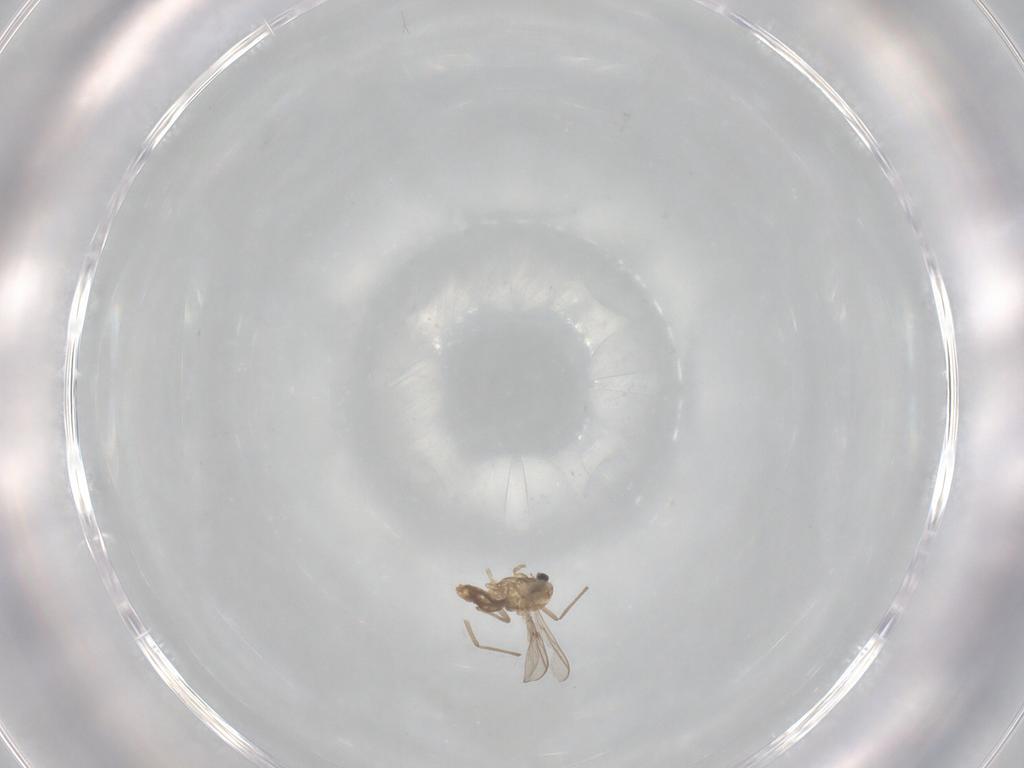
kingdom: Animalia
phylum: Arthropoda
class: Insecta
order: Diptera
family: Chironomidae
